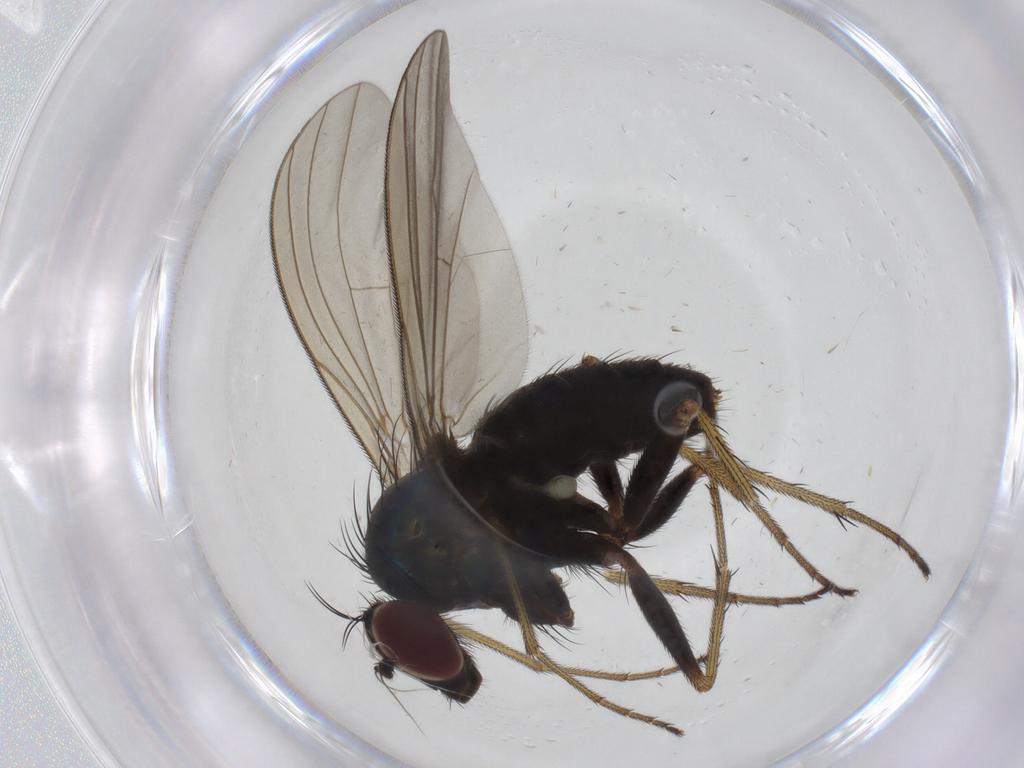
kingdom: Animalia
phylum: Arthropoda
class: Insecta
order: Diptera
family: Dolichopodidae
